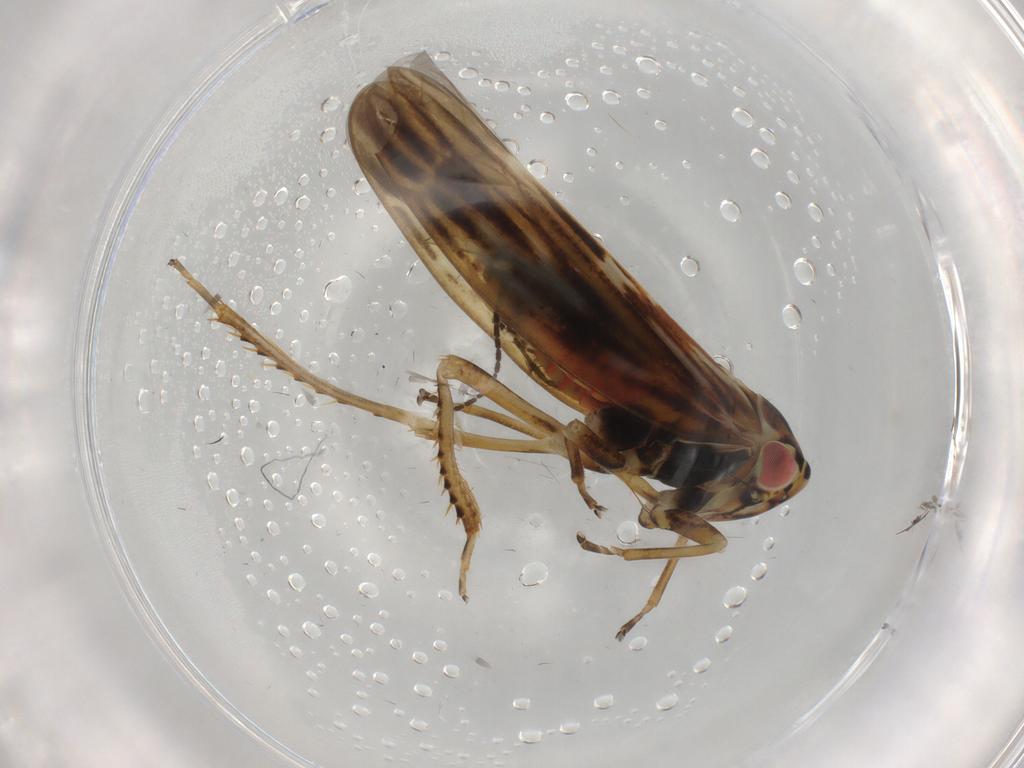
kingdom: Animalia
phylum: Arthropoda
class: Insecta
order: Hemiptera
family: Cicadellidae
